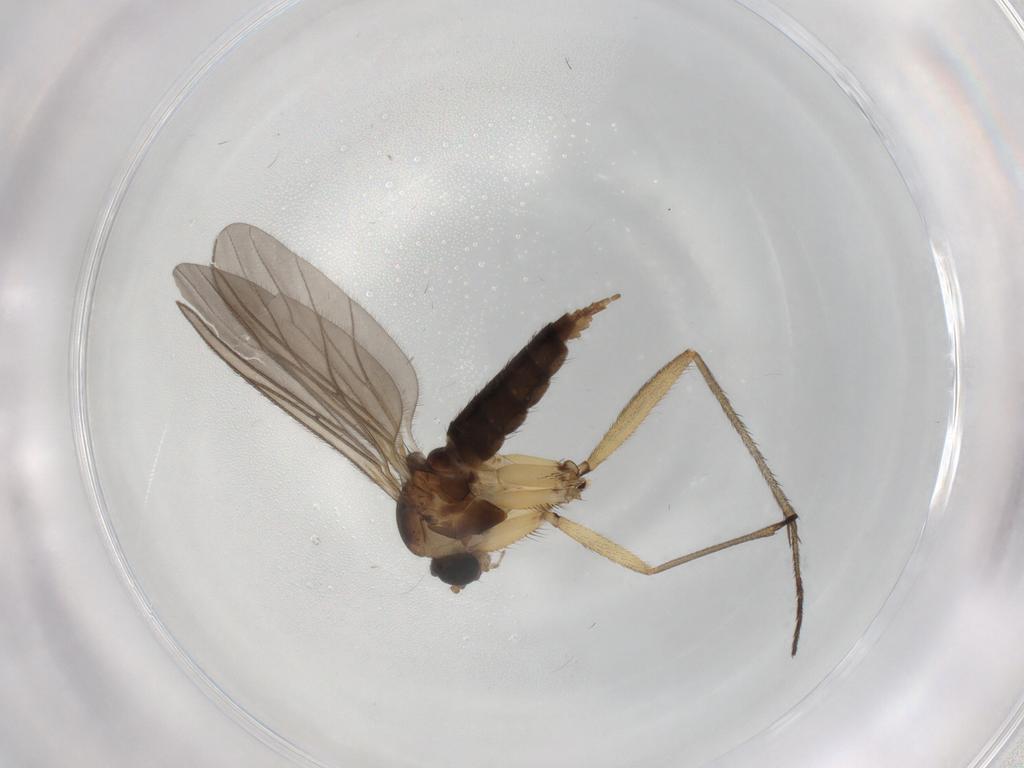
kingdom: Animalia
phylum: Arthropoda
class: Insecta
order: Diptera
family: Sciaridae
